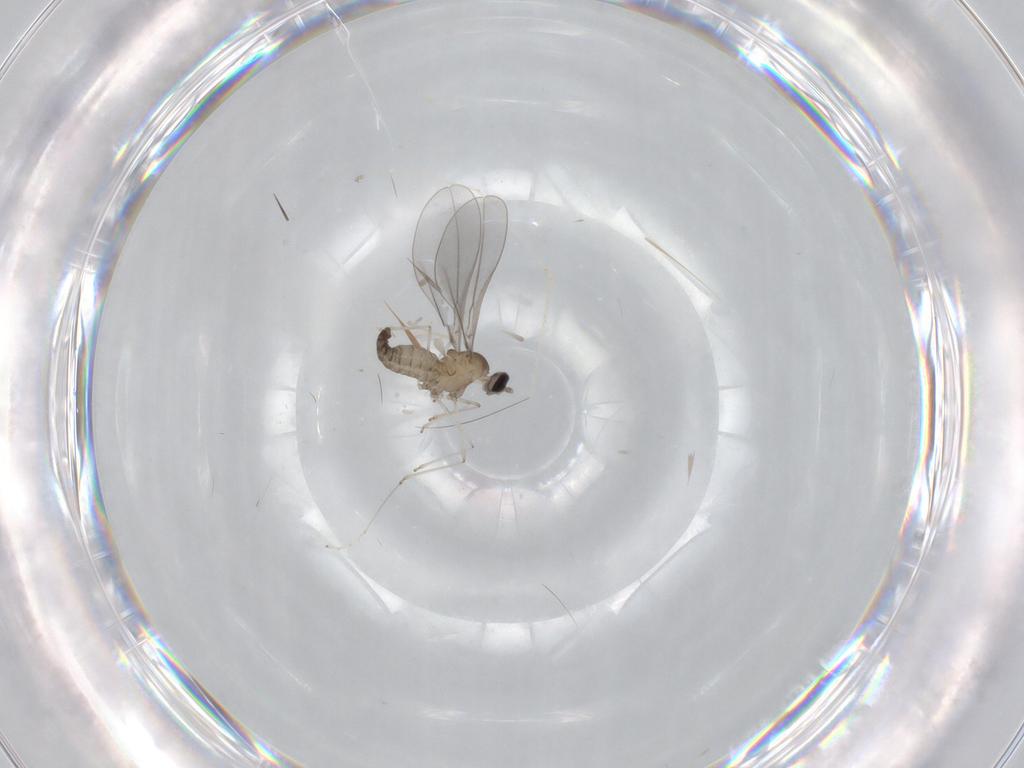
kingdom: Animalia
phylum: Arthropoda
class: Insecta
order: Diptera
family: Cecidomyiidae
